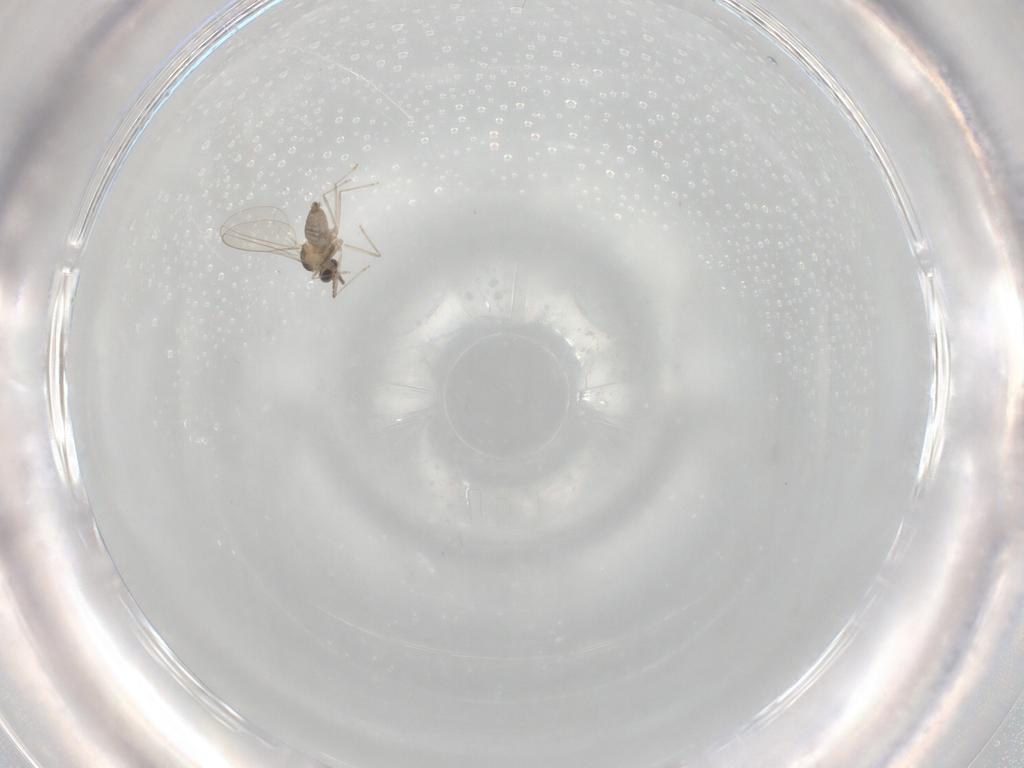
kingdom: Animalia
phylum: Arthropoda
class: Insecta
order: Diptera
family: Cecidomyiidae
